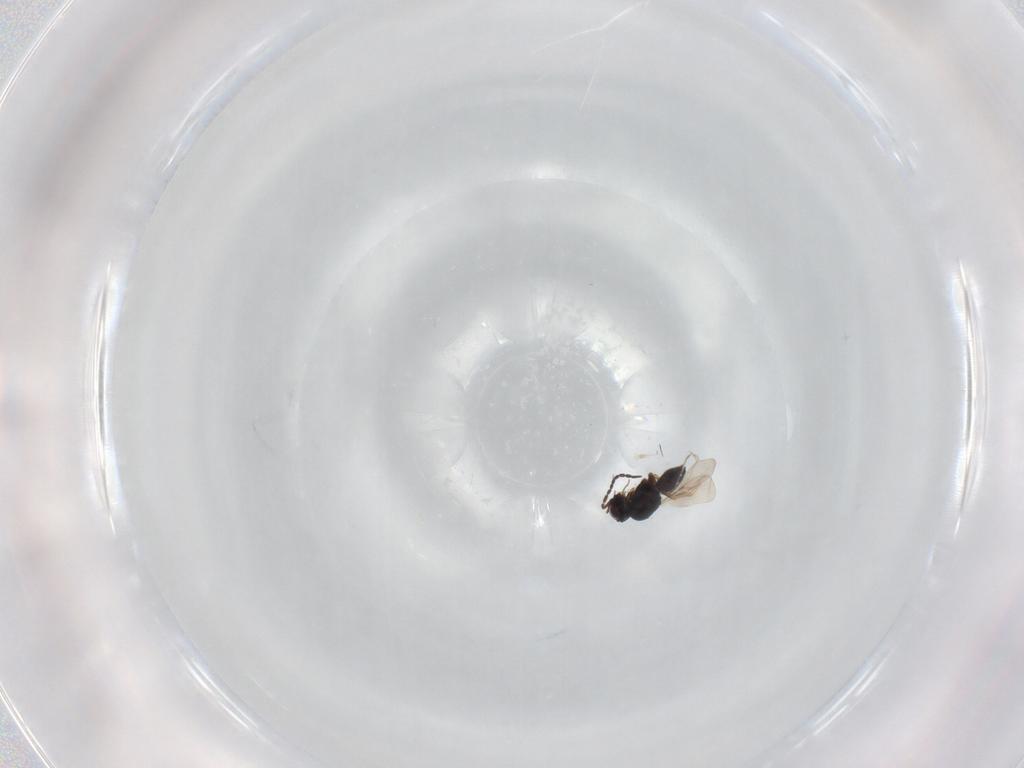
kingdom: Animalia
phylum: Arthropoda
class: Insecta
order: Hymenoptera
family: Ceraphronidae
